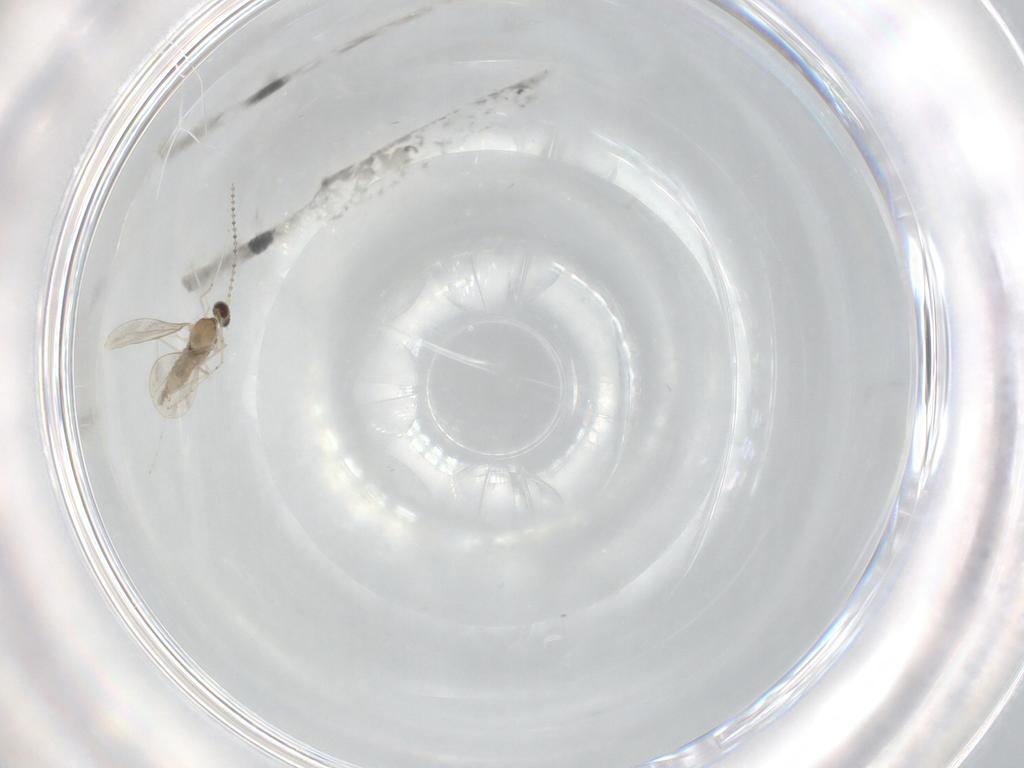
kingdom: Animalia
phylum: Arthropoda
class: Insecta
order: Diptera
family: Cecidomyiidae
